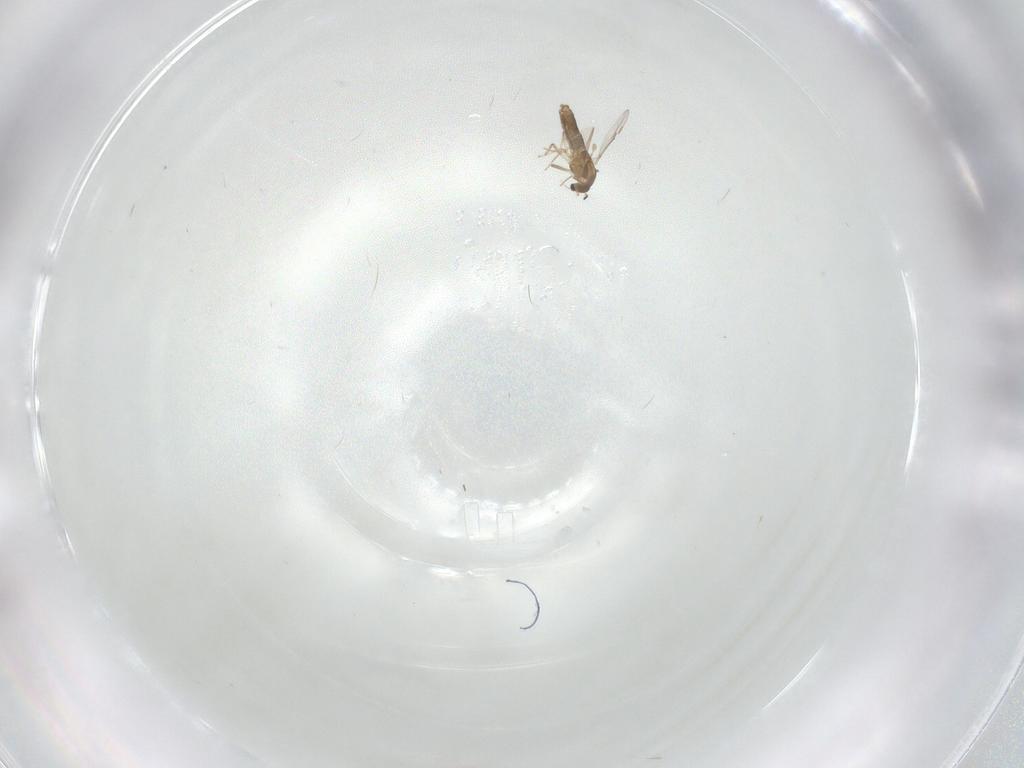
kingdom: Animalia
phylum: Arthropoda
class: Insecta
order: Diptera
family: Chironomidae
